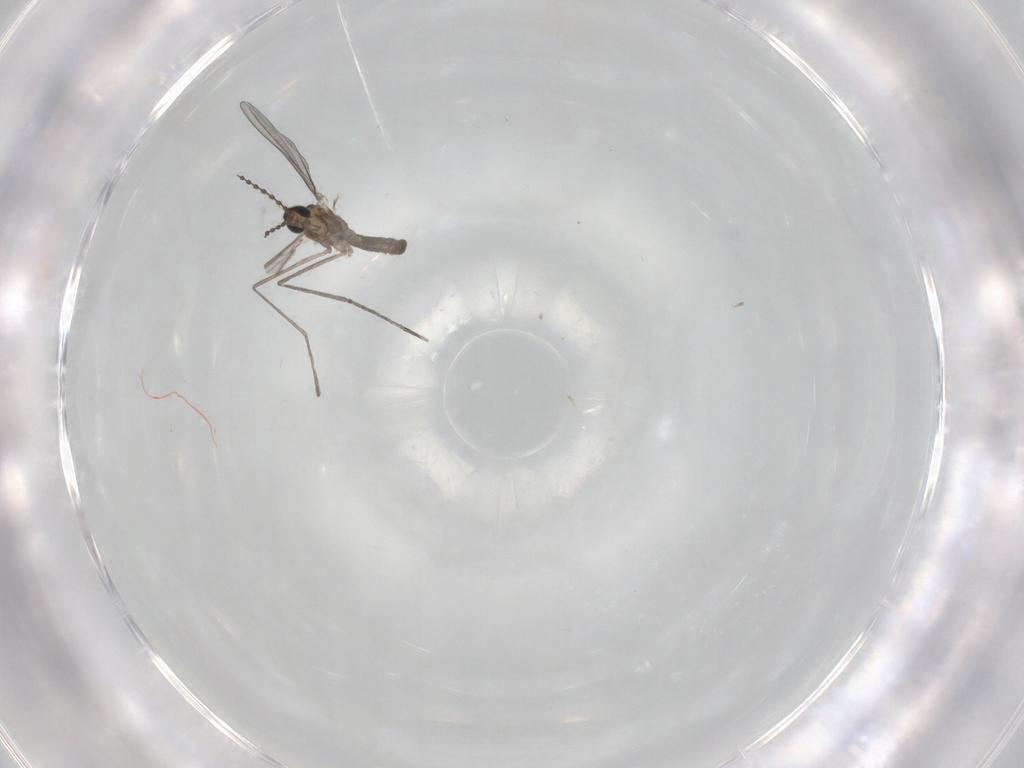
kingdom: Animalia
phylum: Arthropoda
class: Insecta
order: Diptera
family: Cecidomyiidae
